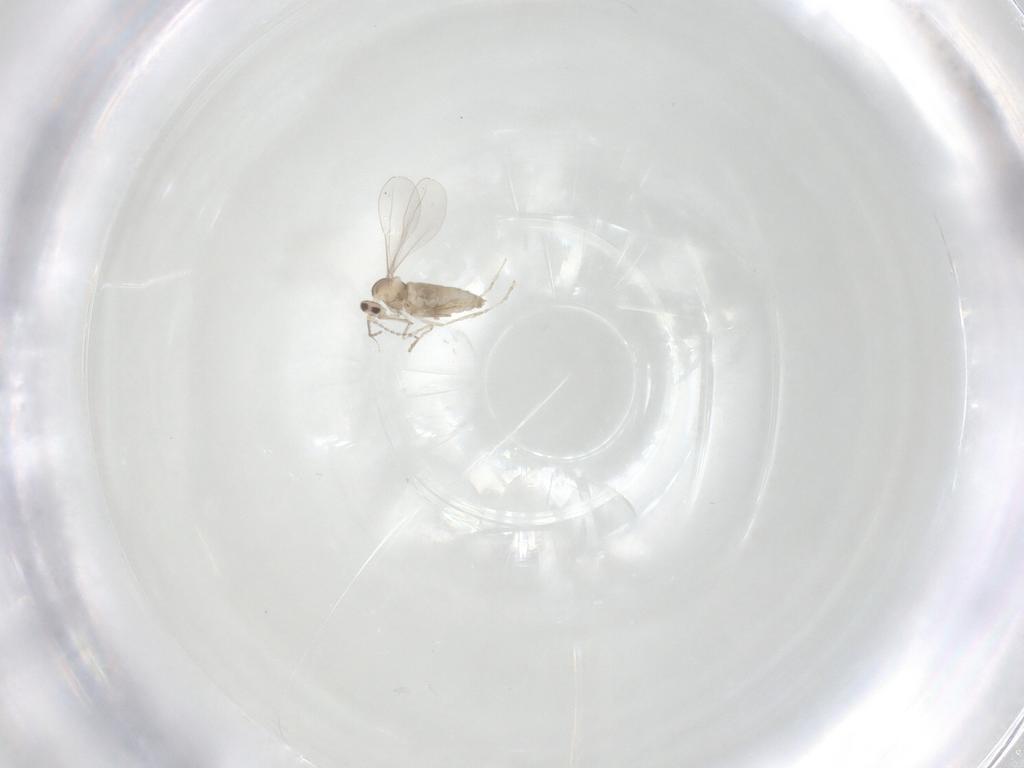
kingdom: Animalia
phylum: Arthropoda
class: Insecta
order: Diptera
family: Cecidomyiidae
